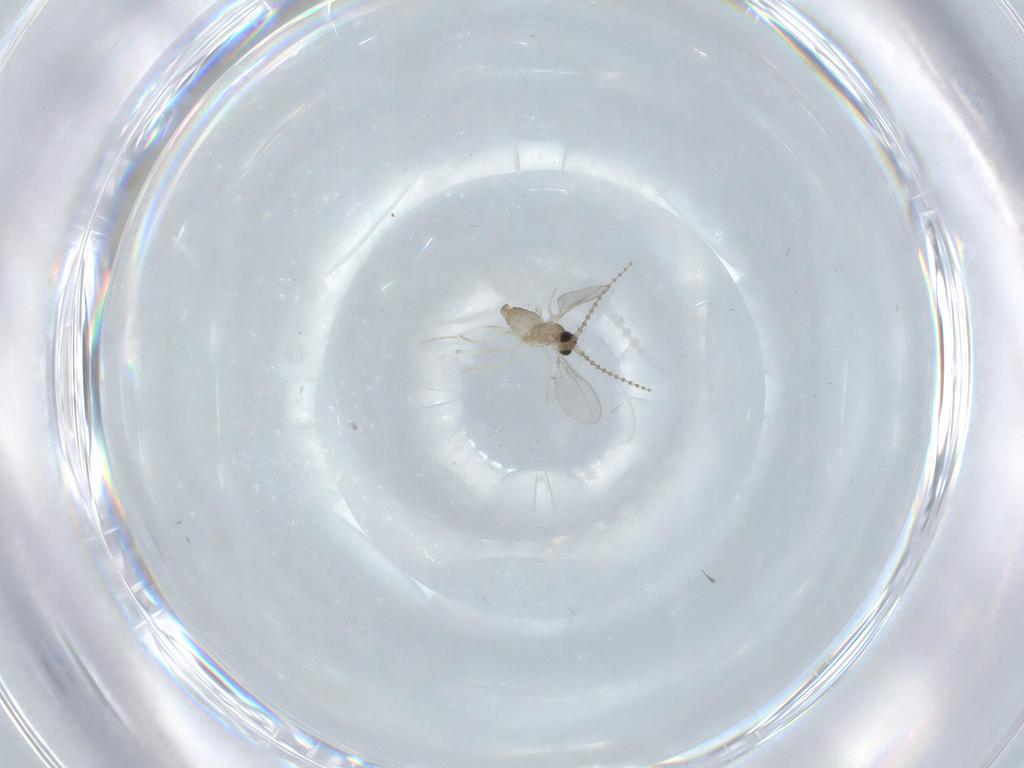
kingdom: Animalia
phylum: Arthropoda
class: Insecta
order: Diptera
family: Cecidomyiidae
